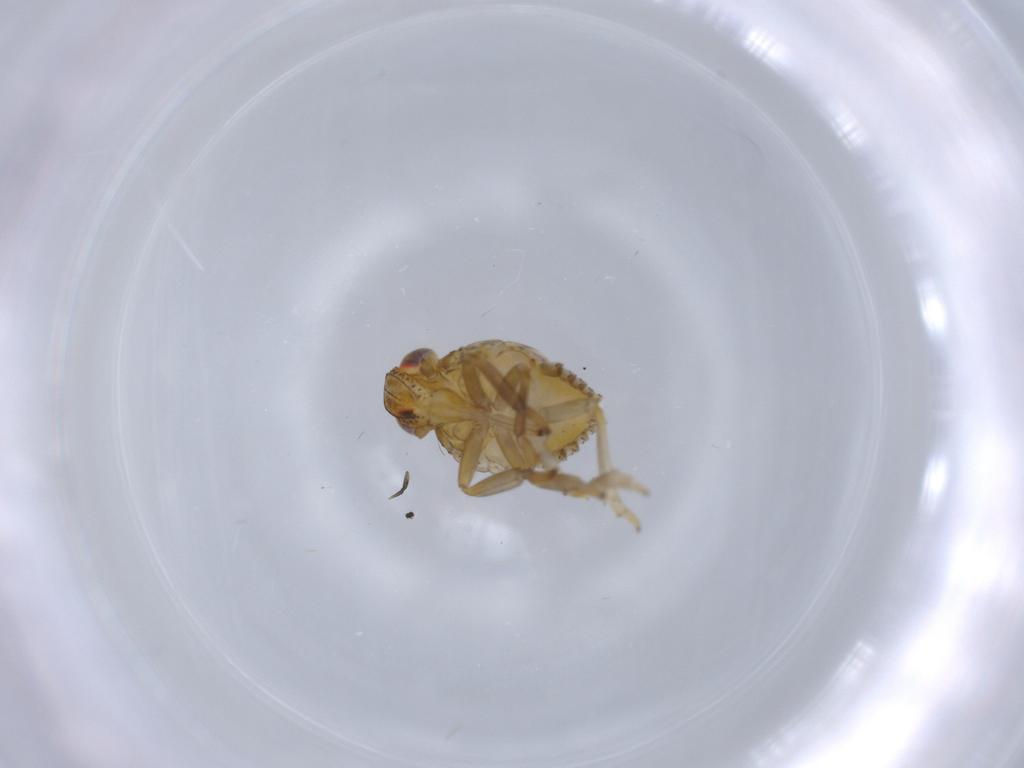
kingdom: Animalia
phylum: Arthropoda
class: Insecta
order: Hemiptera
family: Issidae
